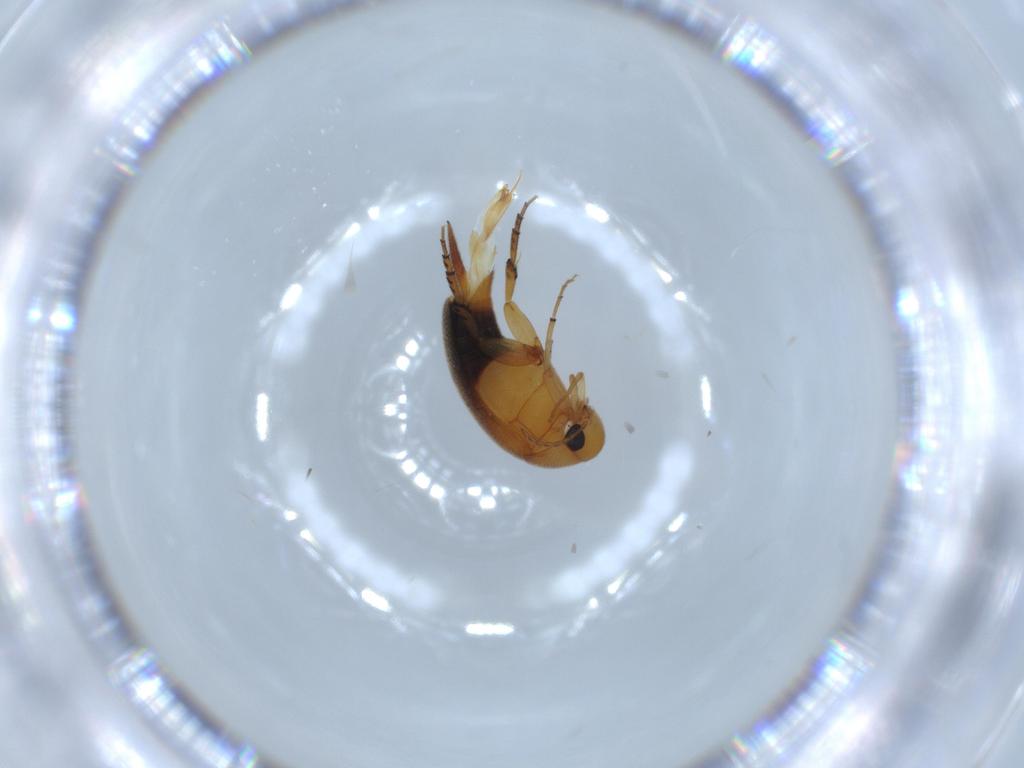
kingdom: Animalia
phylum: Arthropoda
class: Insecta
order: Coleoptera
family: Mordellidae
